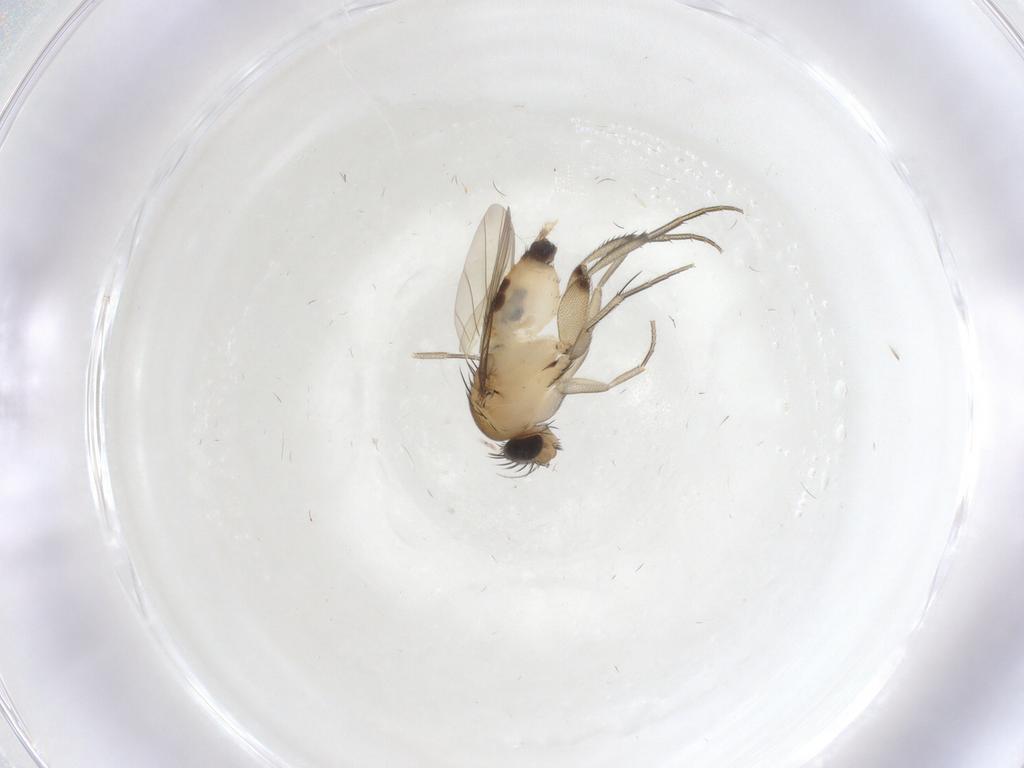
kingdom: Animalia
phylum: Arthropoda
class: Insecta
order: Diptera
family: Phoridae
